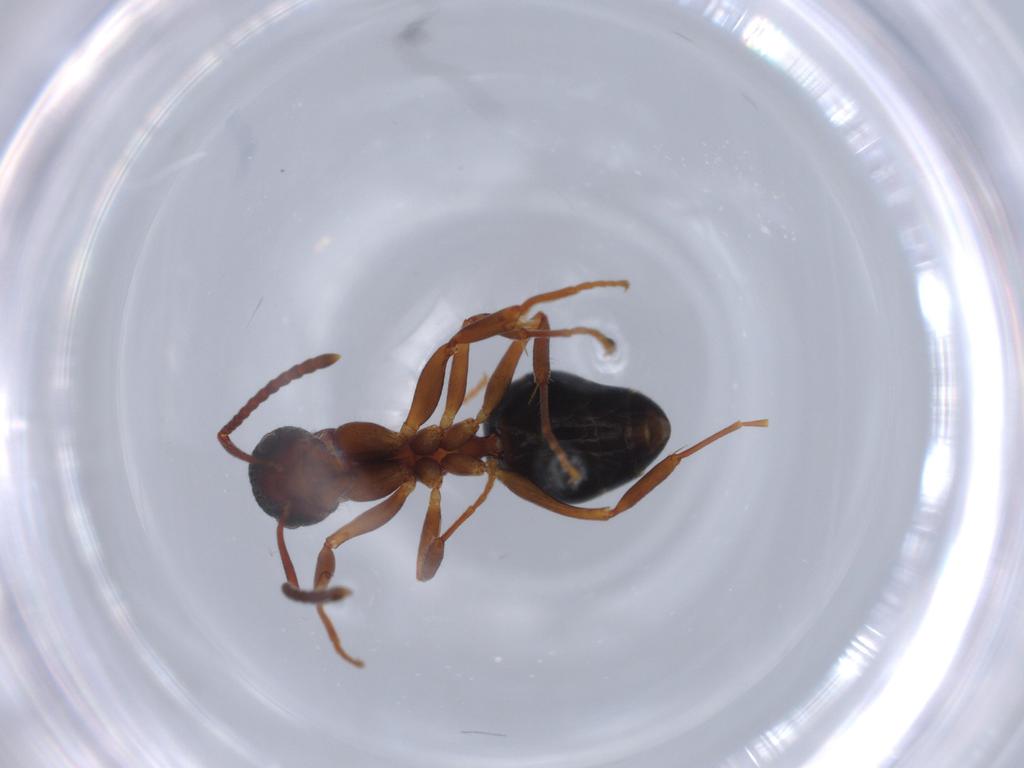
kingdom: Animalia
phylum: Arthropoda
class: Insecta
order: Hymenoptera
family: Formicidae
